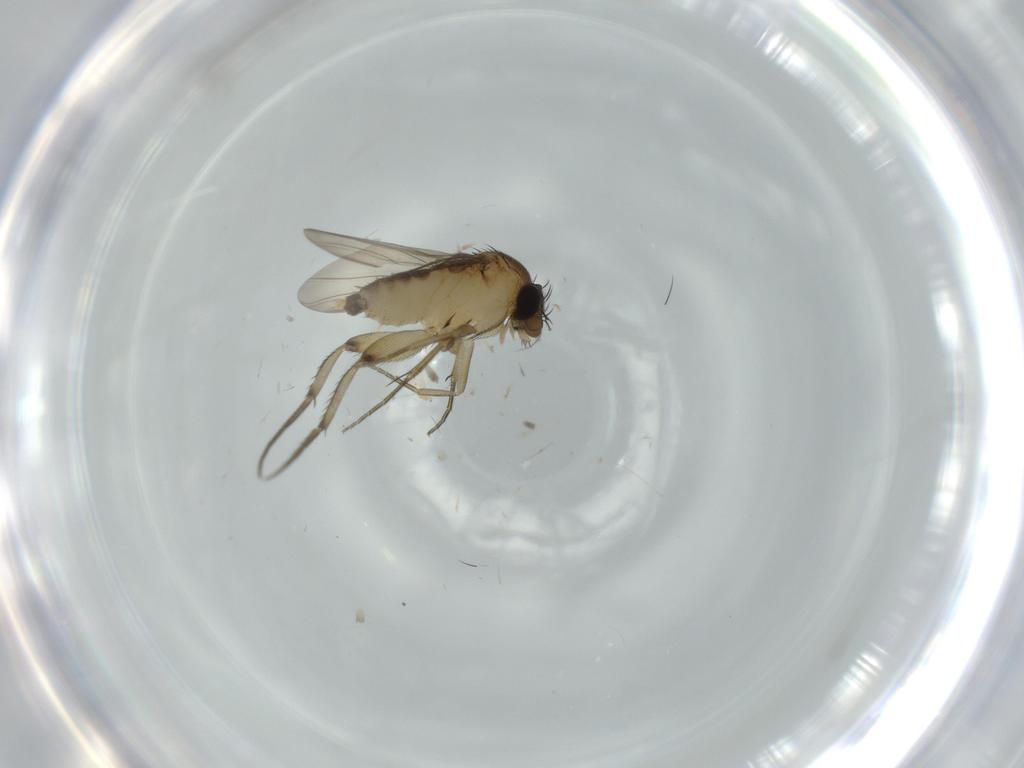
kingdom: Animalia
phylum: Arthropoda
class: Insecta
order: Diptera
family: Phoridae
